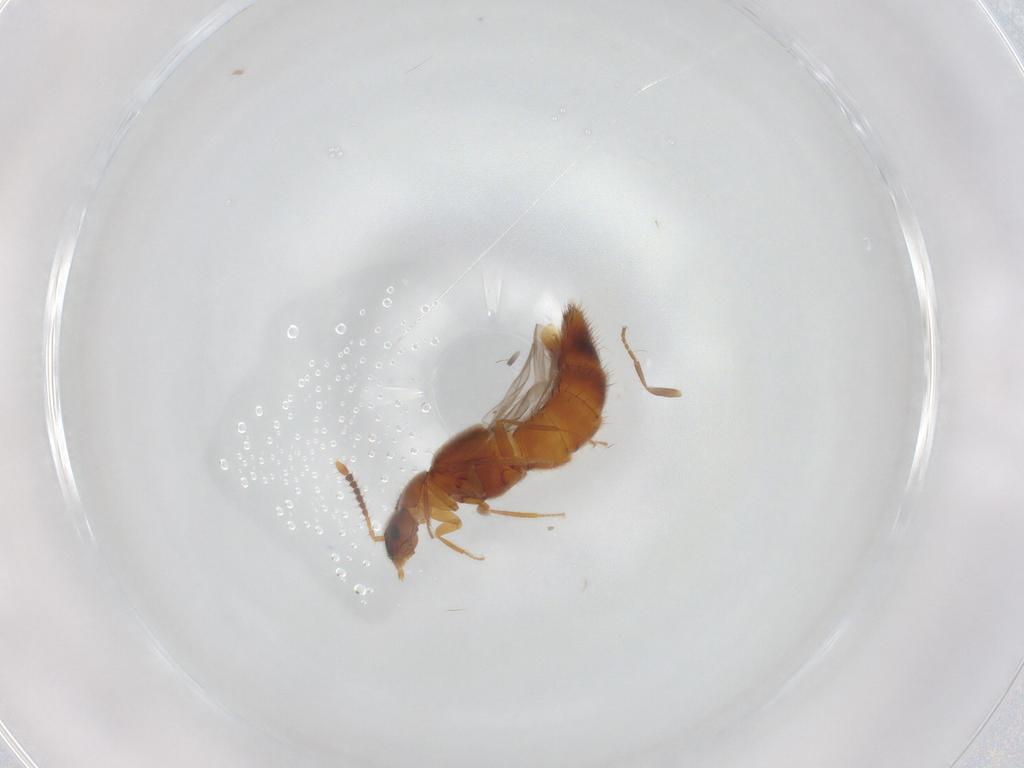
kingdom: Animalia
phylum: Arthropoda
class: Insecta
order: Coleoptera
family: Staphylinidae
